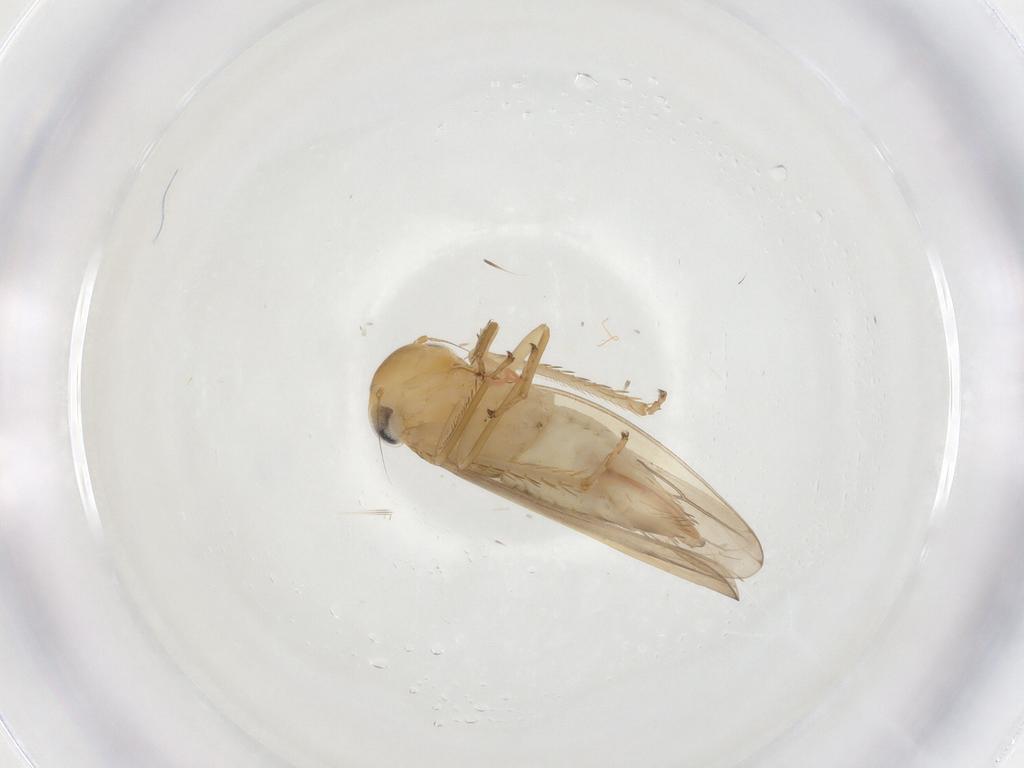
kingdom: Animalia
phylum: Arthropoda
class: Insecta
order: Hemiptera
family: Cicadellidae
